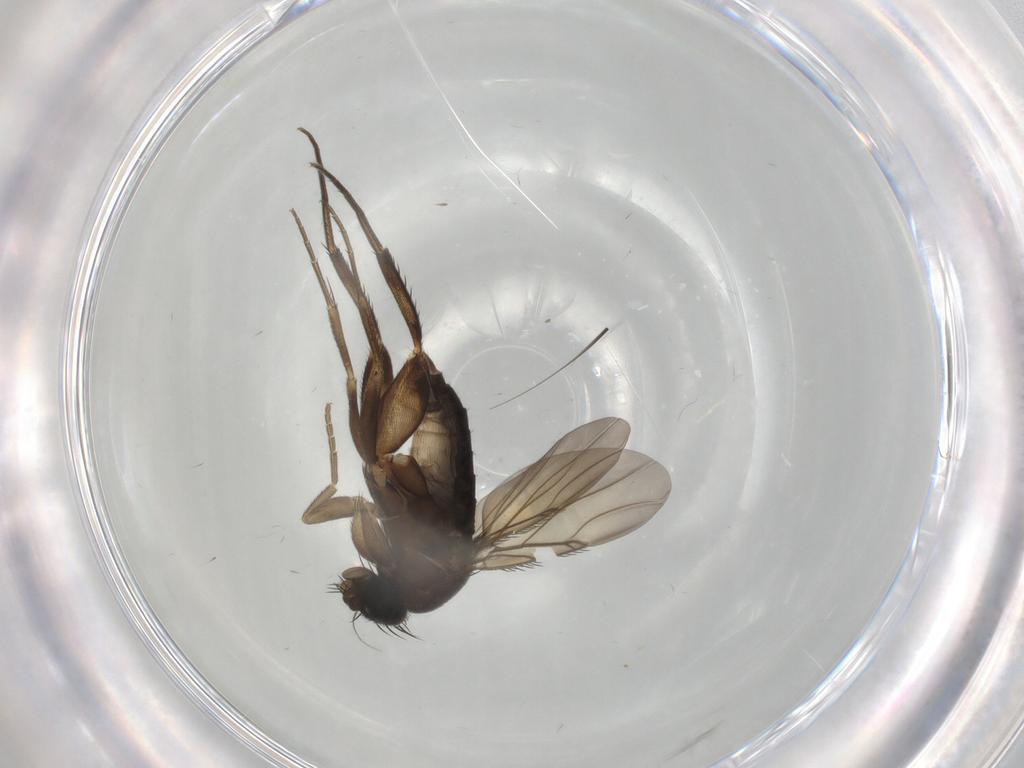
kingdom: Animalia
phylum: Arthropoda
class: Insecta
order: Diptera
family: Phoridae
